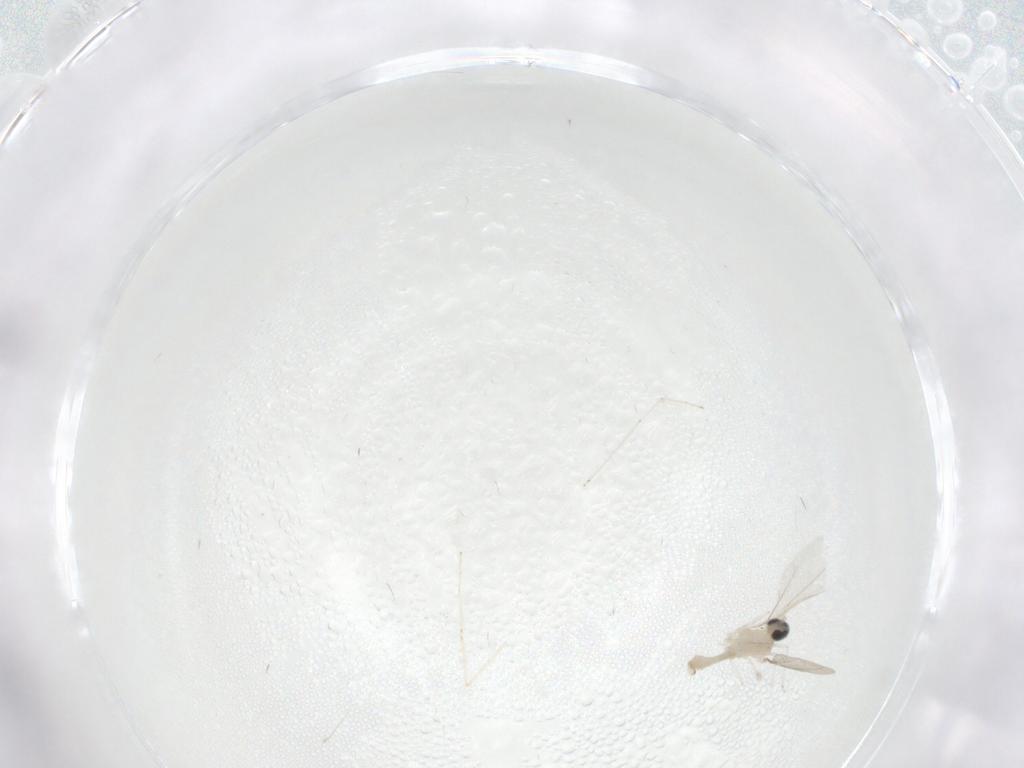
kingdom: Animalia
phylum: Arthropoda
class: Insecta
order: Diptera
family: Cecidomyiidae
